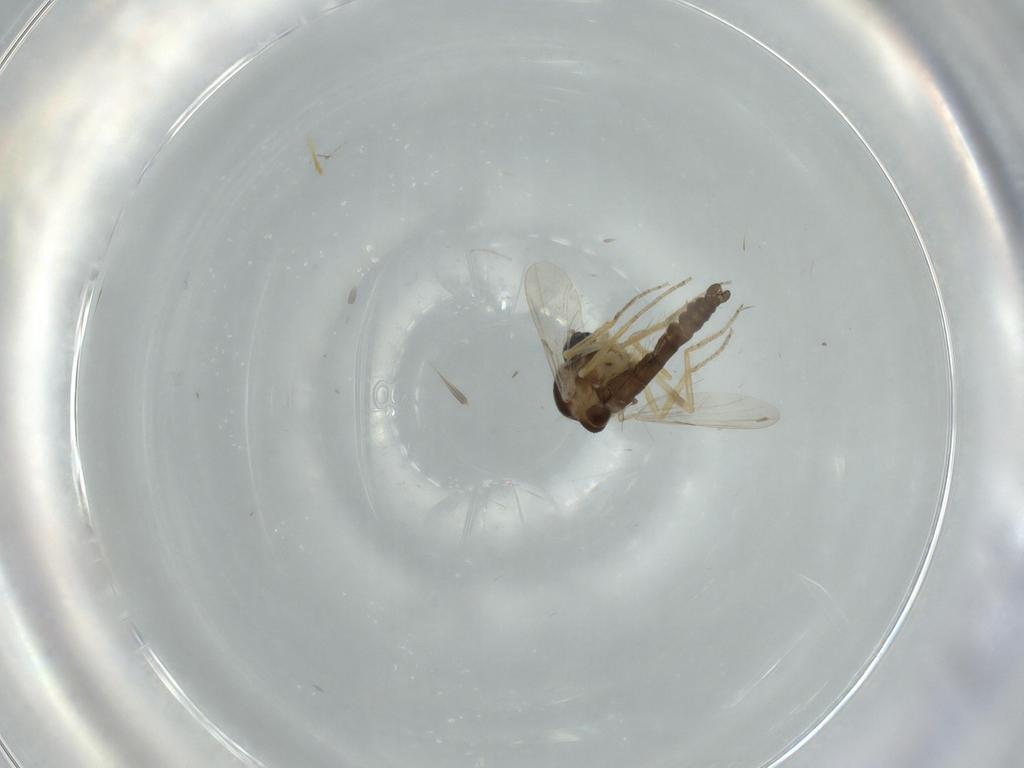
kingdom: Animalia
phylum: Arthropoda
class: Insecta
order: Diptera
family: Ceratopogonidae
